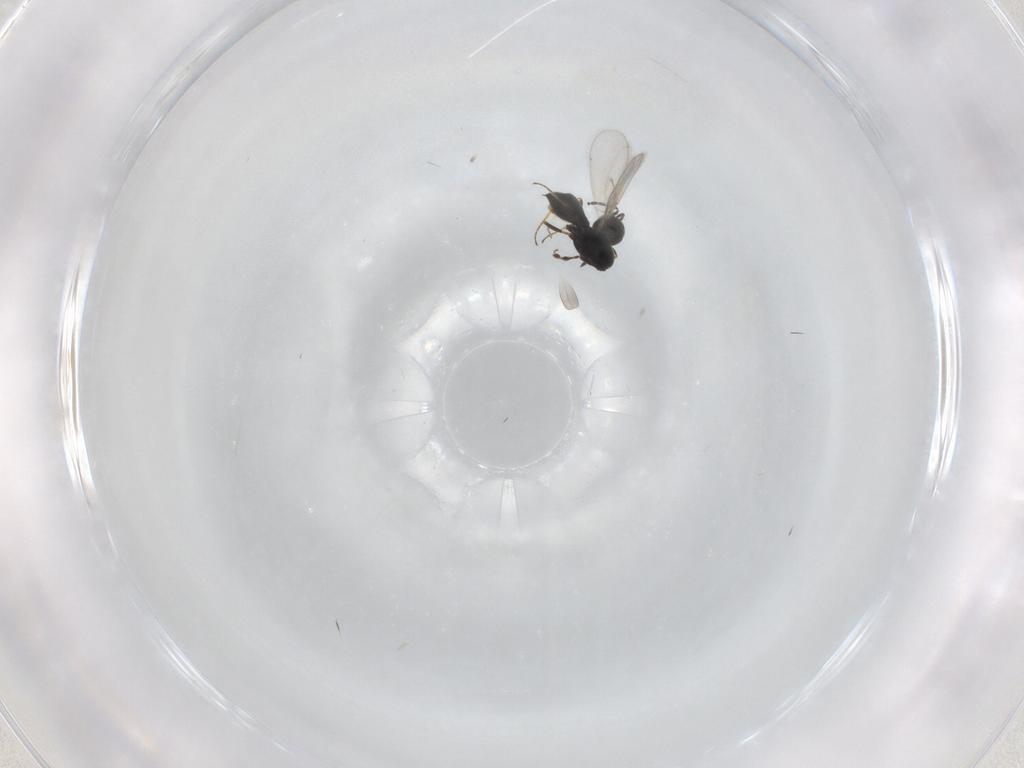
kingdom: Animalia
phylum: Arthropoda
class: Insecta
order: Hymenoptera
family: Scelionidae
